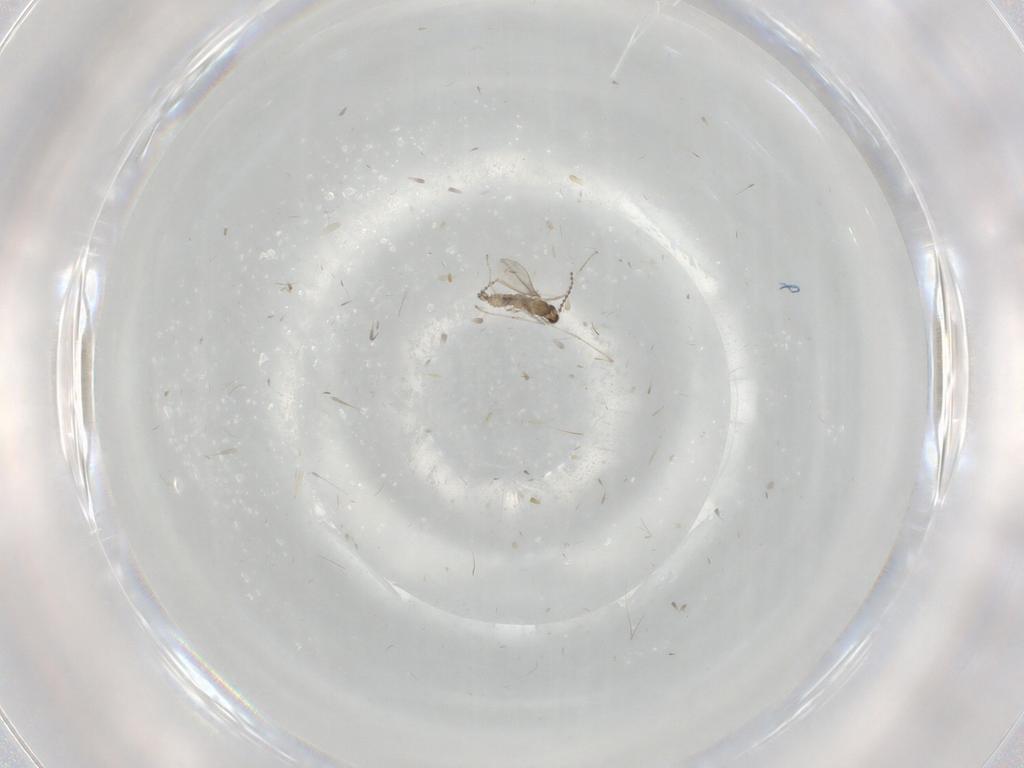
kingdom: Animalia
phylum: Arthropoda
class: Insecta
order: Diptera
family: Cecidomyiidae
